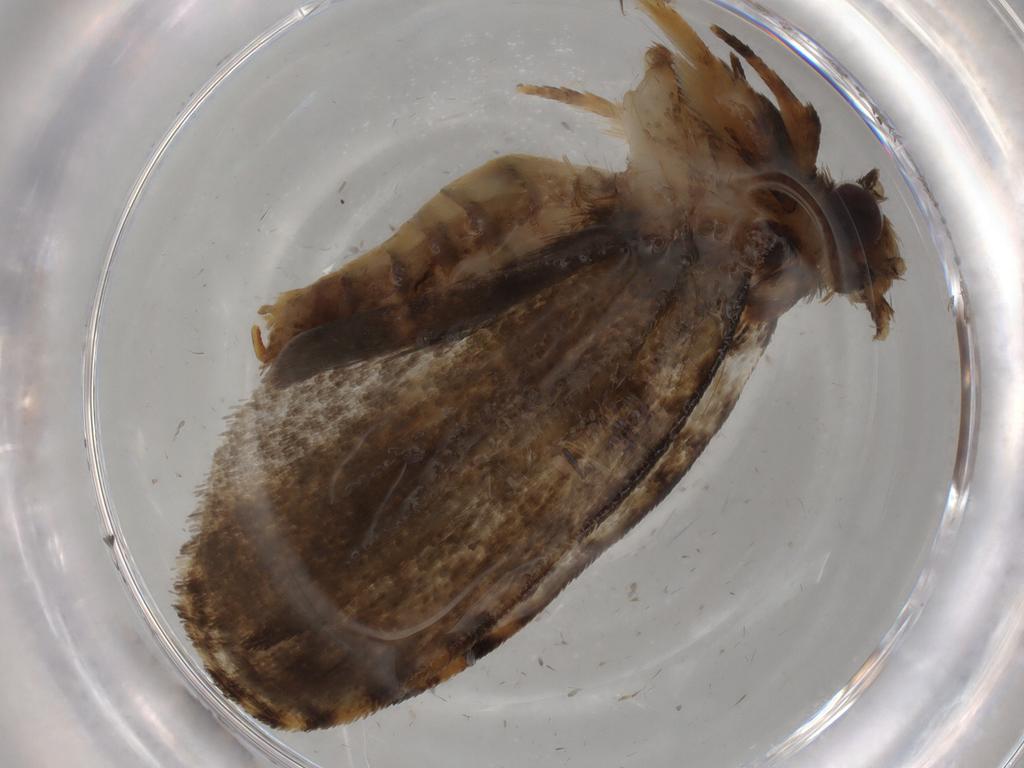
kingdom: Animalia
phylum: Arthropoda
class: Insecta
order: Lepidoptera
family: Tineidae
